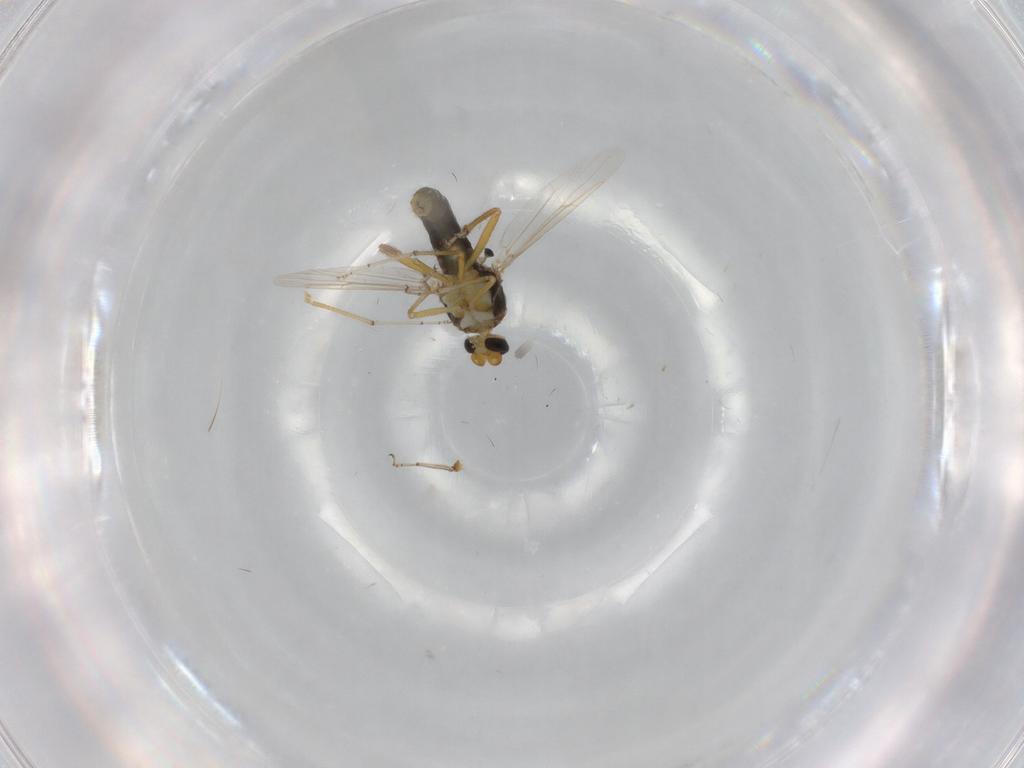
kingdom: Animalia
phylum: Arthropoda
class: Insecta
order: Diptera
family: Ceratopogonidae
